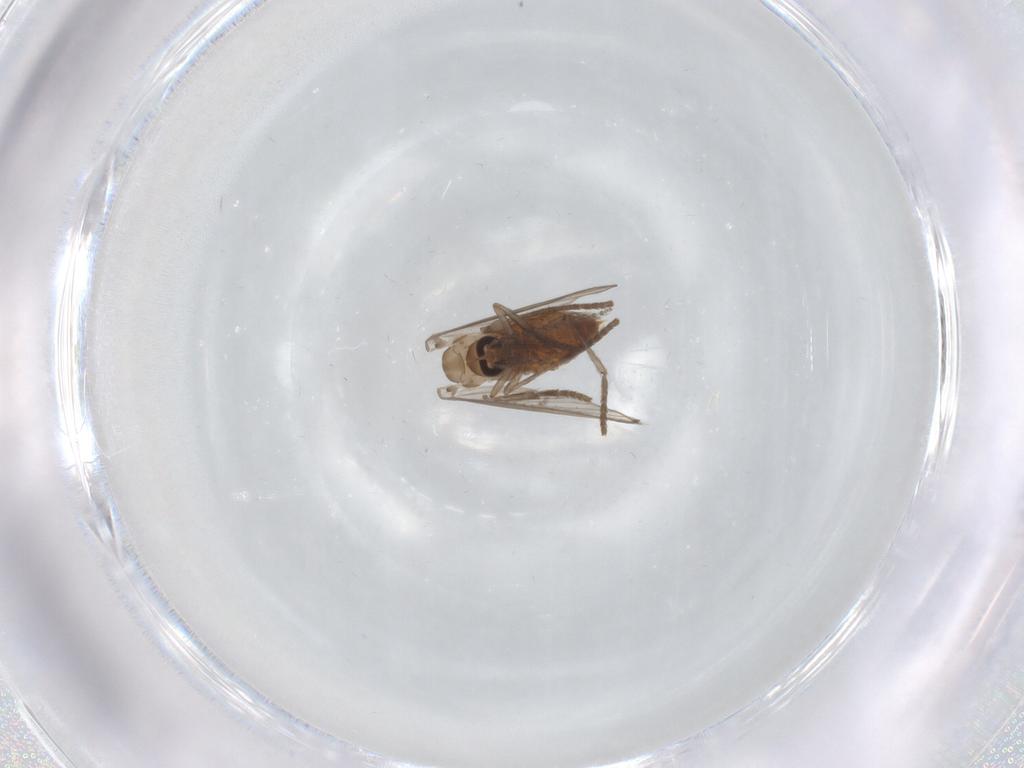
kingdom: Animalia
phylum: Arthropoda
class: Insecta
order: Diptera
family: Psychodidae
